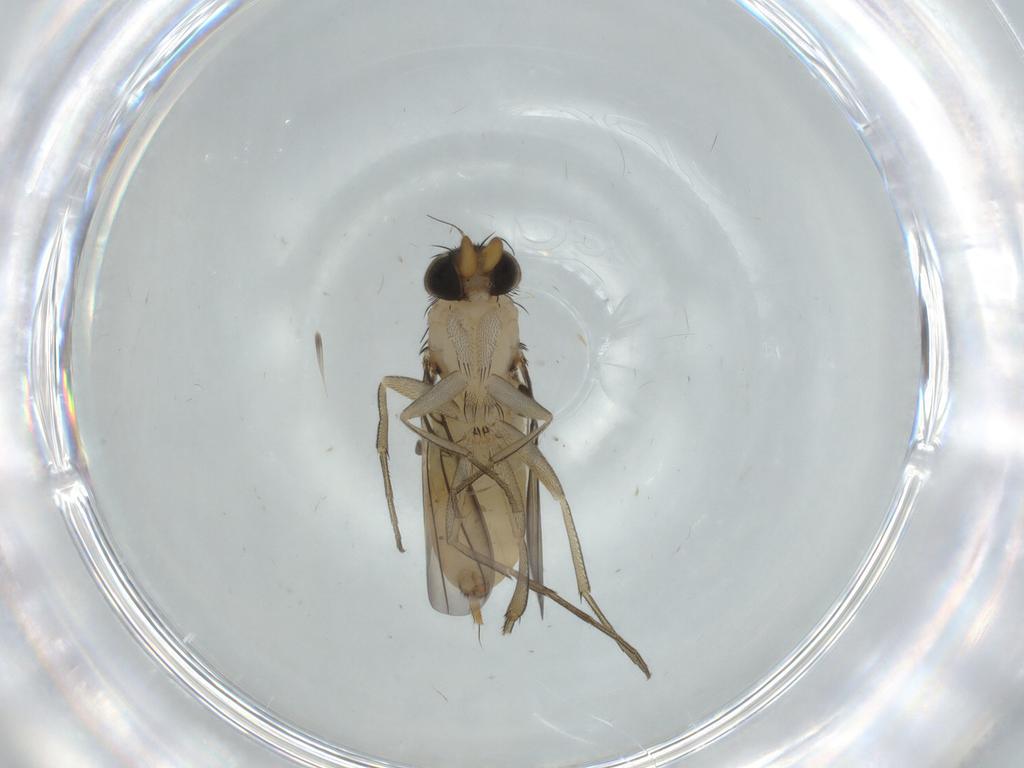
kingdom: Animalia
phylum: Arthropoda
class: Insecta
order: Diptera
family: Phoridae
